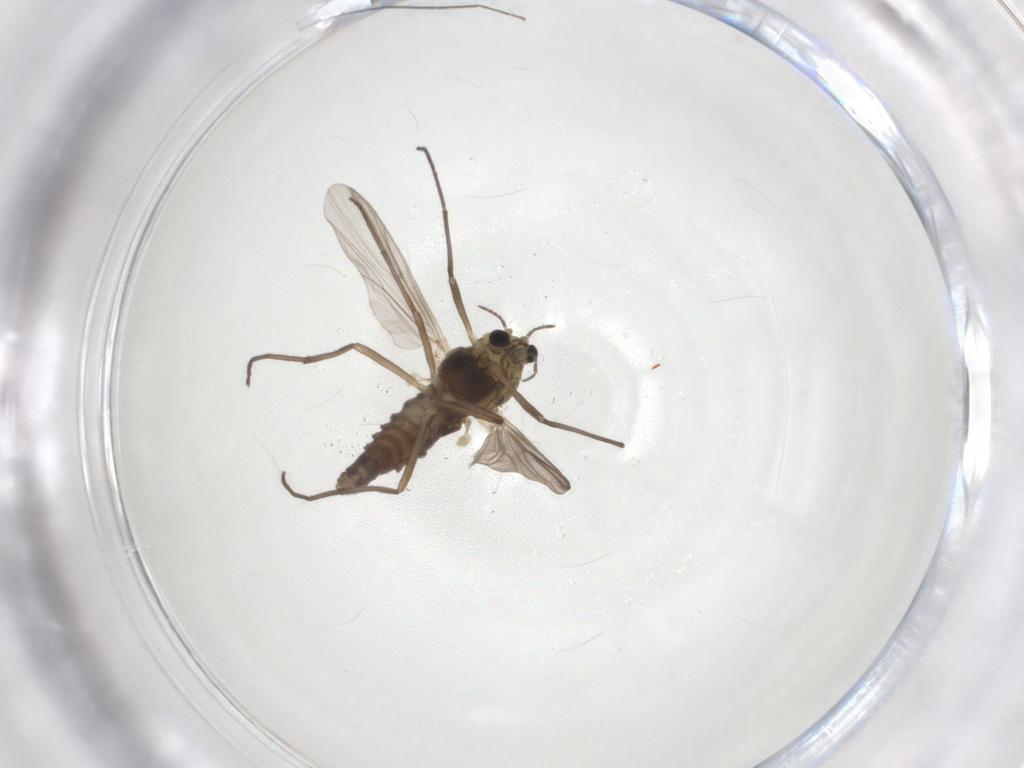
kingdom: Animalia
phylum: Arthropoda
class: Insecta
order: Diptera
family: Chironomidae
